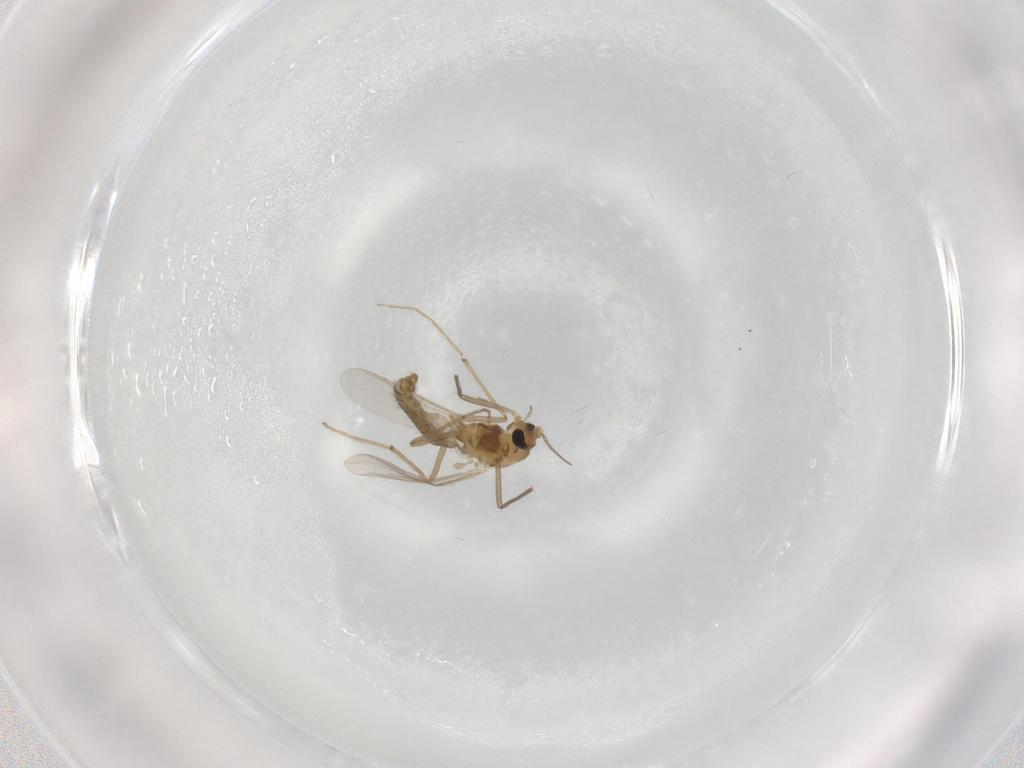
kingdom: Animalia
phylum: Arthropoda
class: Insecta
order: Diptera
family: Chironomidae
